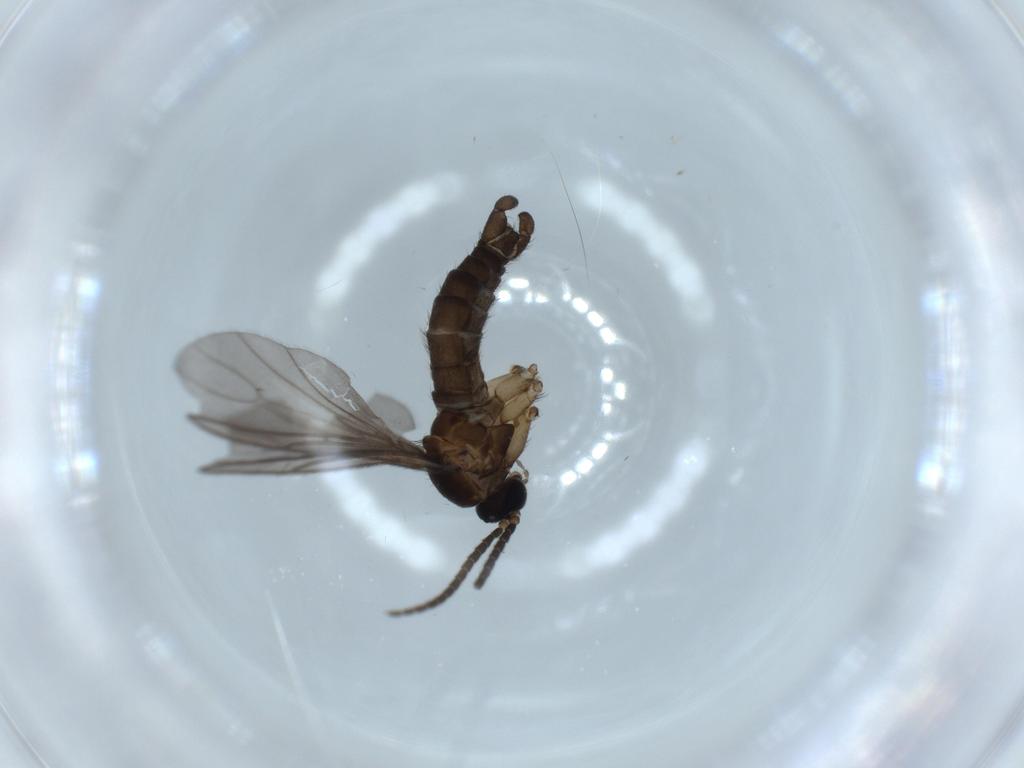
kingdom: Animalia
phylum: Arthropoda
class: Insecta
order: Diptera
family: Sciaridae
